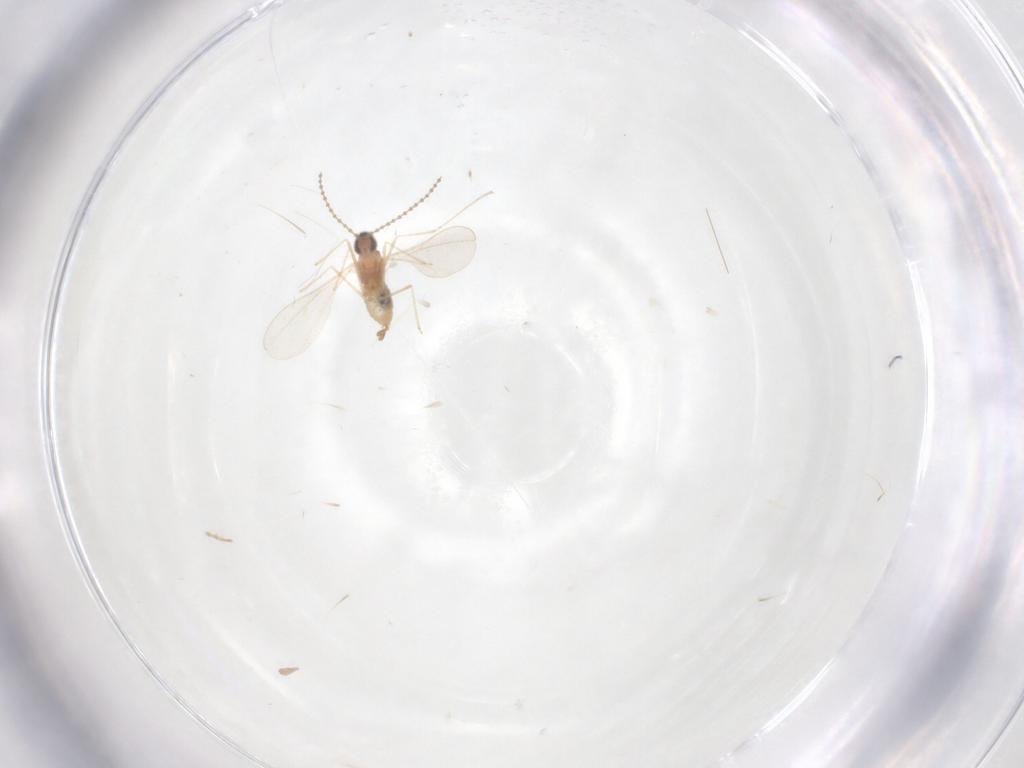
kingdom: Animalia
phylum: Arthropoda
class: Insecta
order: Diptera
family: Cecidomyiidae
